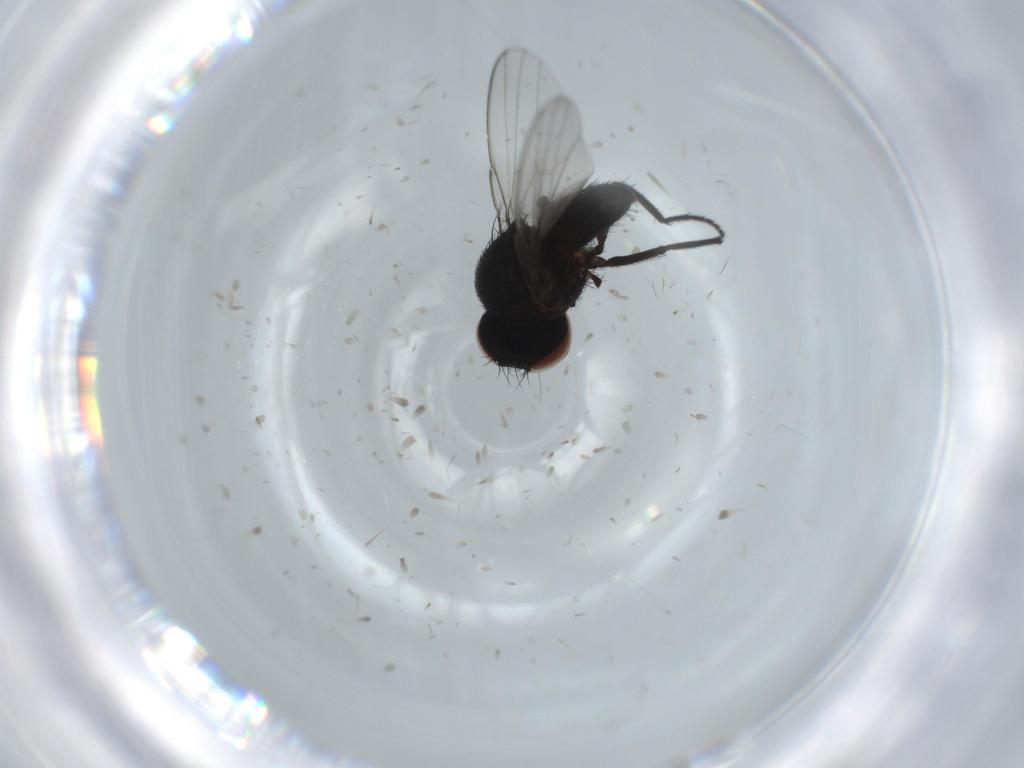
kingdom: Animalia
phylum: Arthropoda
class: Insecta
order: Diptera
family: Milichiidae
